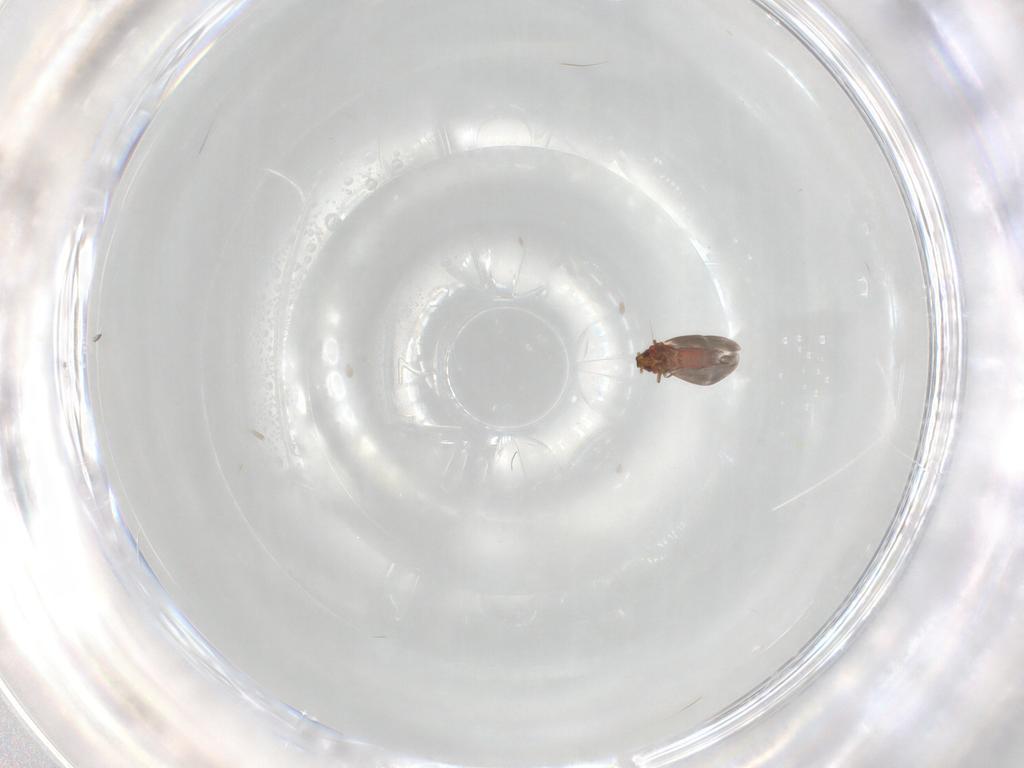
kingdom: Animalia
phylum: Arthropoda
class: Insecta
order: Hemiptera
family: Aleyrodidae
